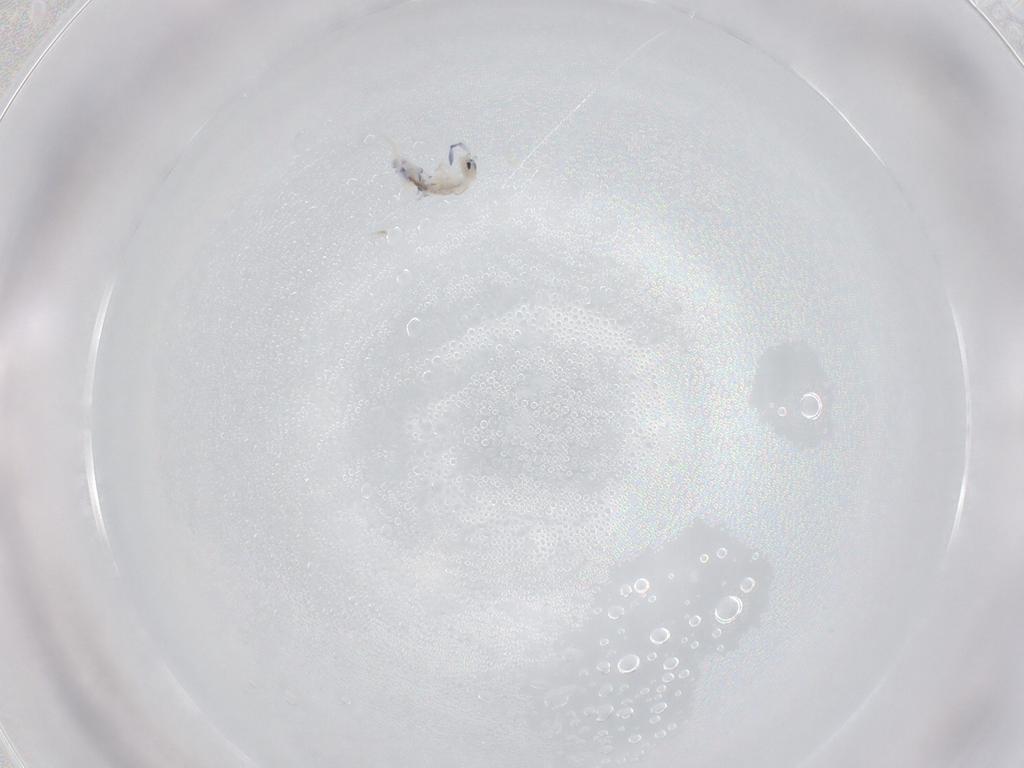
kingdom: Animalia
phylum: Arthropoda
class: Collembola
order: Entomobryomorpha
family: Entomobryidae
